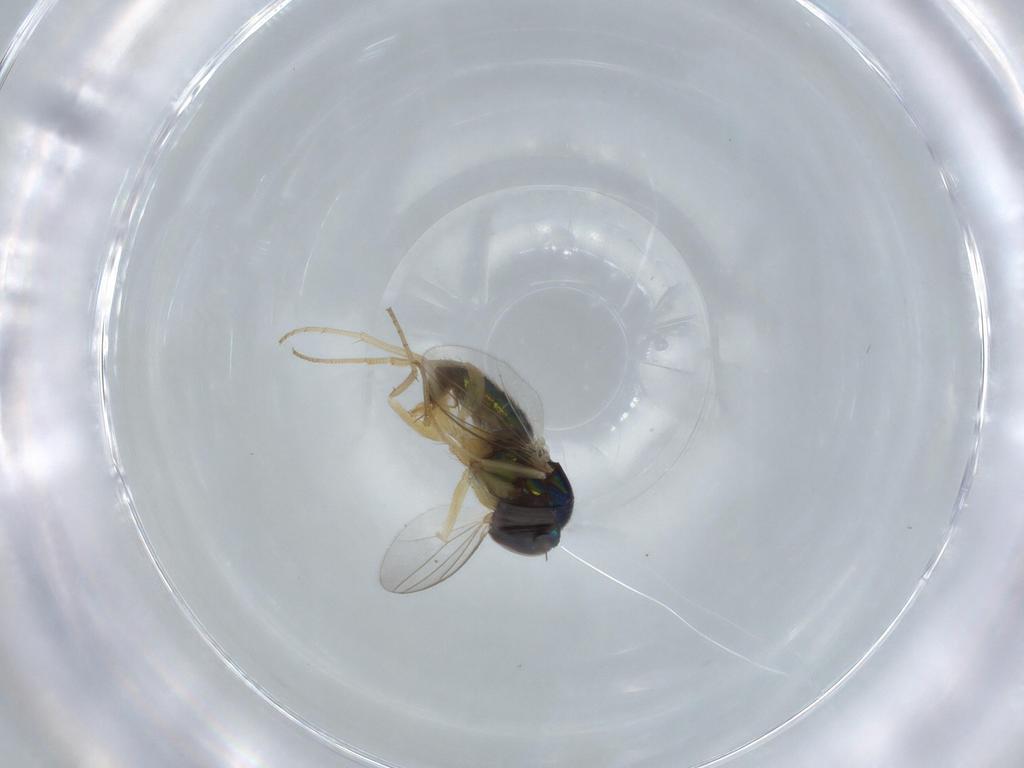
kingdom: Animalia
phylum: Arthropoda
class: Insecta
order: Diptera
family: Dolichopodidae
